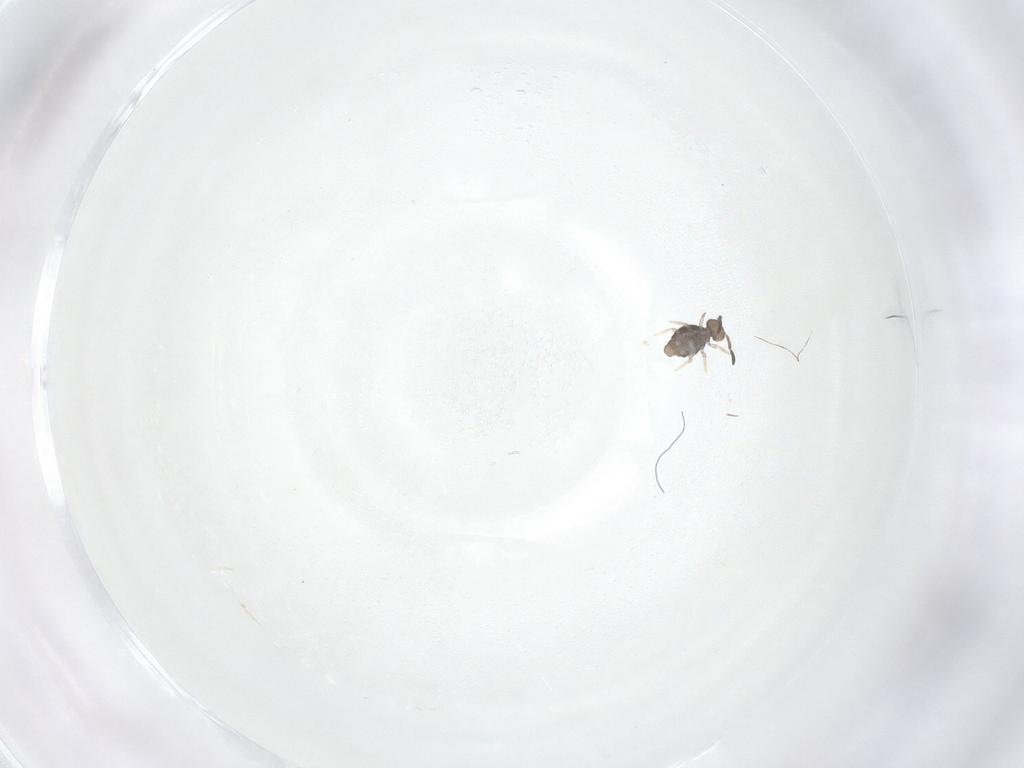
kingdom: Animalia
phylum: Arthropoda
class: Collembola
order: Symphypleona
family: Katiannidae
